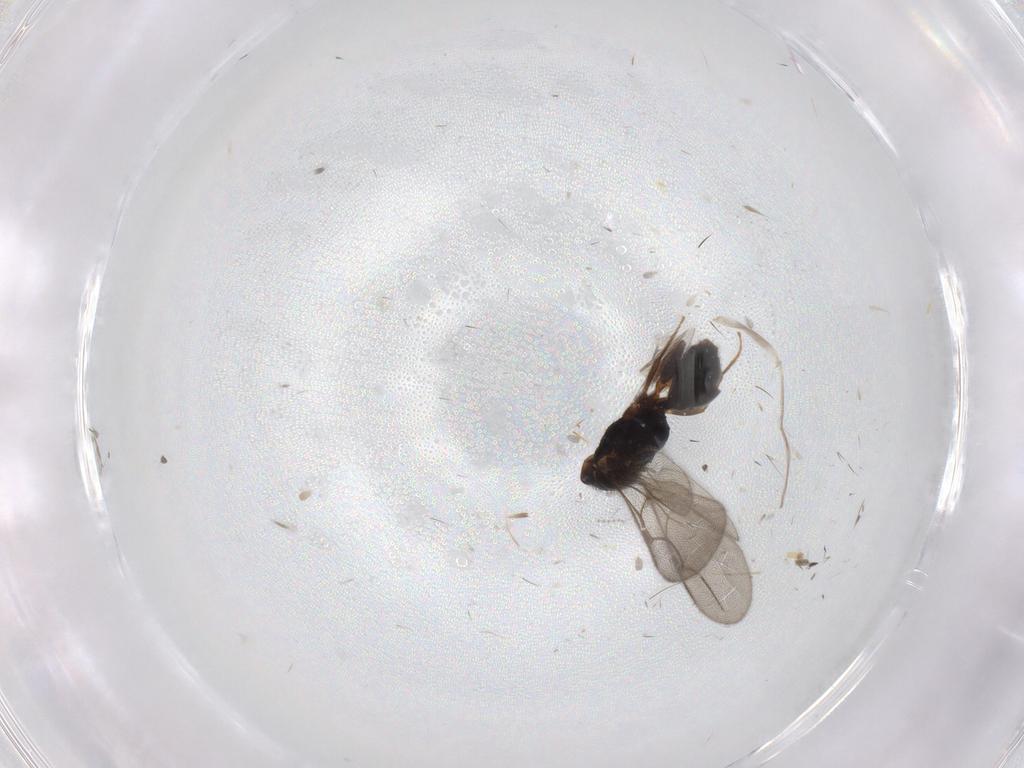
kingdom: Animalia
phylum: Arthropoda
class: Insecta
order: Hymenoptera
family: Bethylidae
